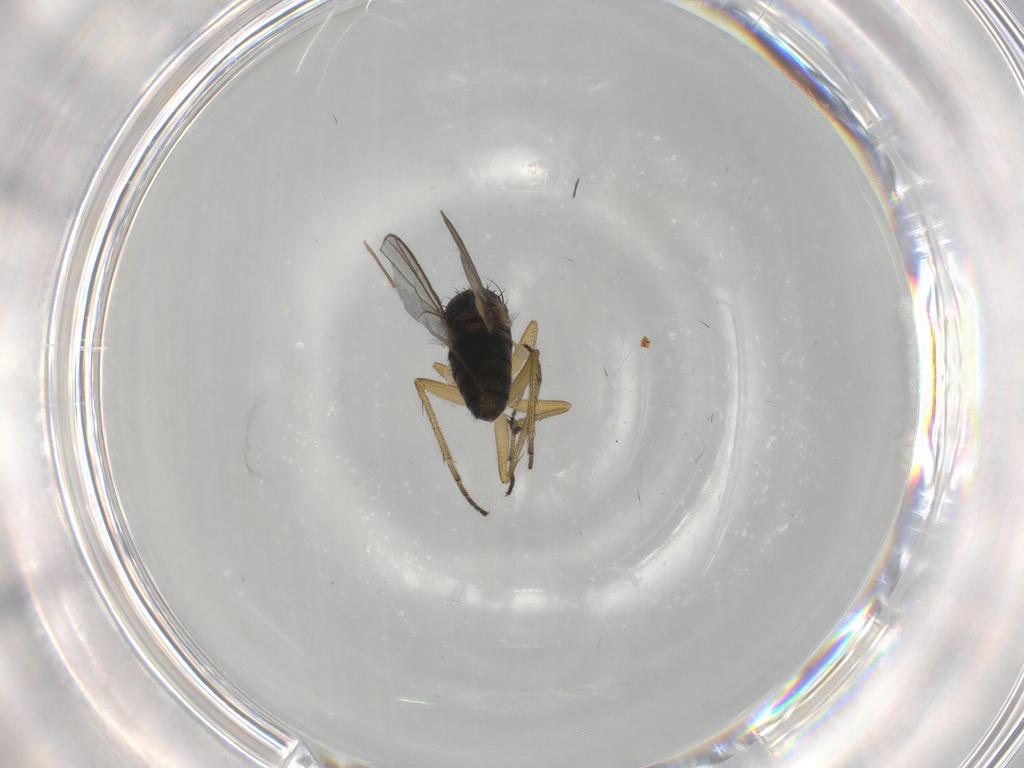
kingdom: Animalia
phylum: Arthropoda
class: Insecta
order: Diptera
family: Chironomidae
